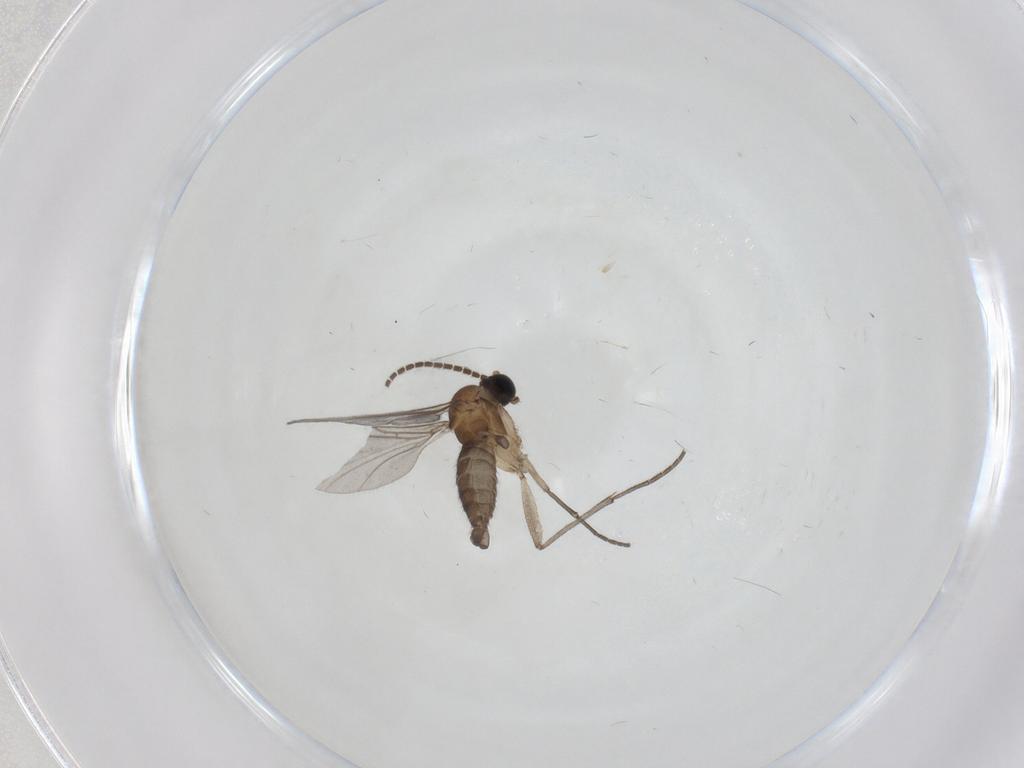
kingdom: Animalia
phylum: Arthropoda
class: Insecta
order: Diptera
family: Sciaridae
